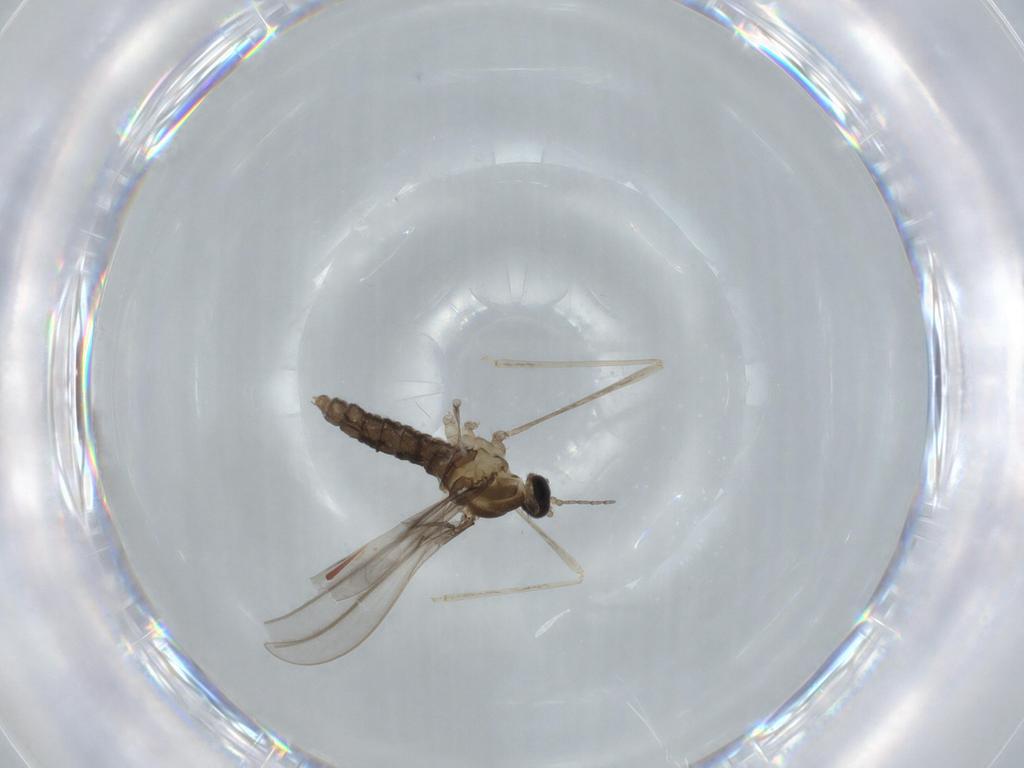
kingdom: Animalia
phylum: Arthropoda
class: Insecta
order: Diptera
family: Cecidomyiidae
